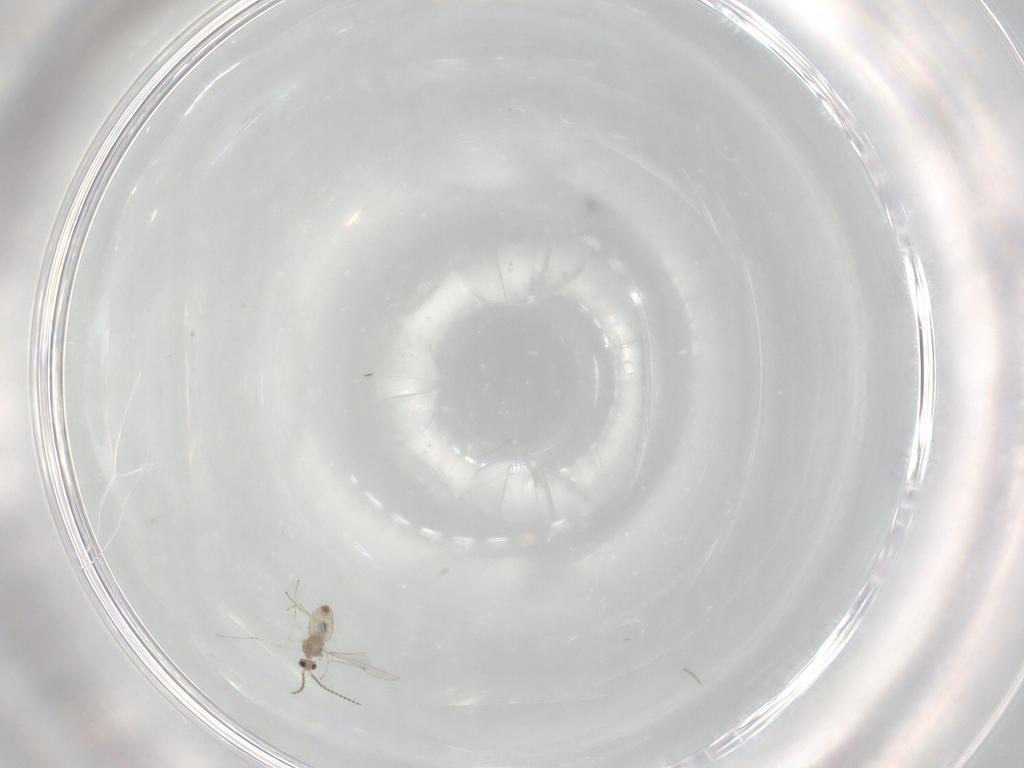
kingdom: Animalia
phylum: Arthropoda
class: Insecta
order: Diptera
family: Cecidomyiidae
